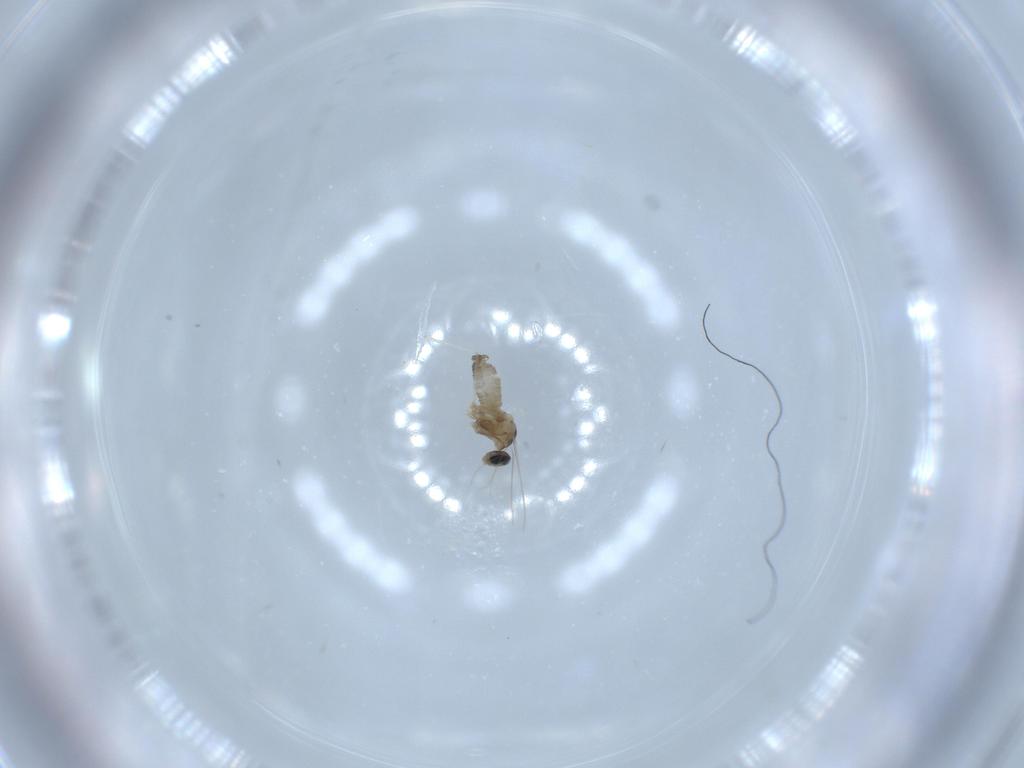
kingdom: Animalia
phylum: Arthropoda
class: Insecta
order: Diptera
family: Cecidomyiidae
